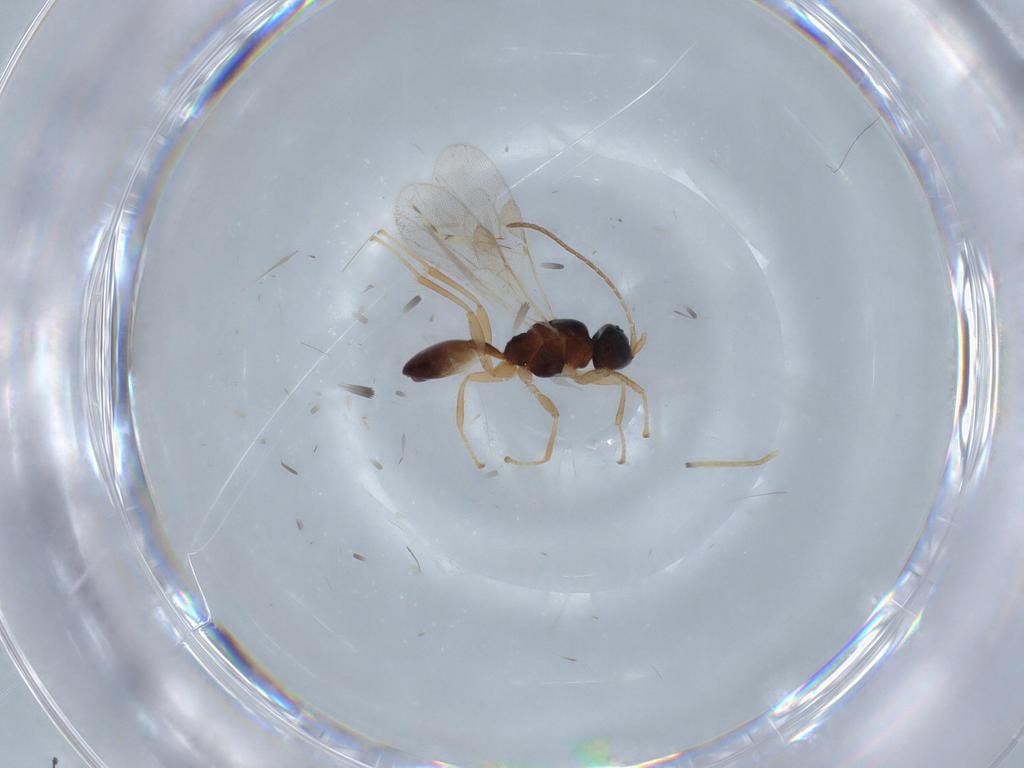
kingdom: Animalia
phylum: Arthropoda
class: Insecta
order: Hymenoptera
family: Braconidae
